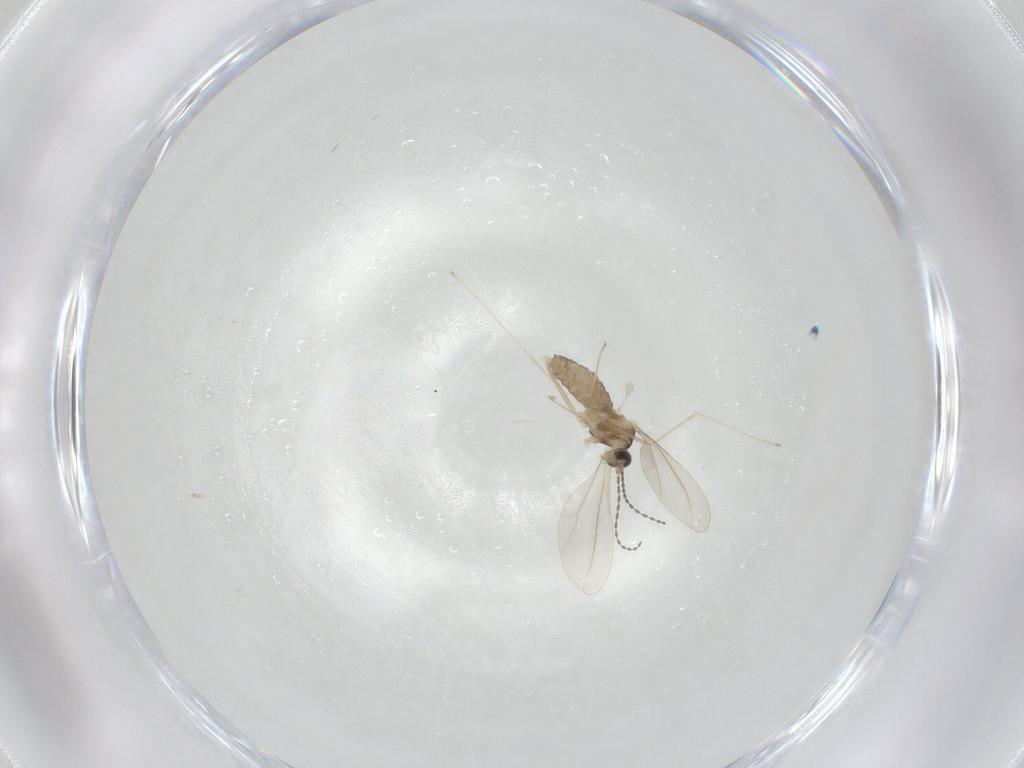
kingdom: Animalia
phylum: Arthropoda
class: Insecta
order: Diptera
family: Cecidomyiidae
